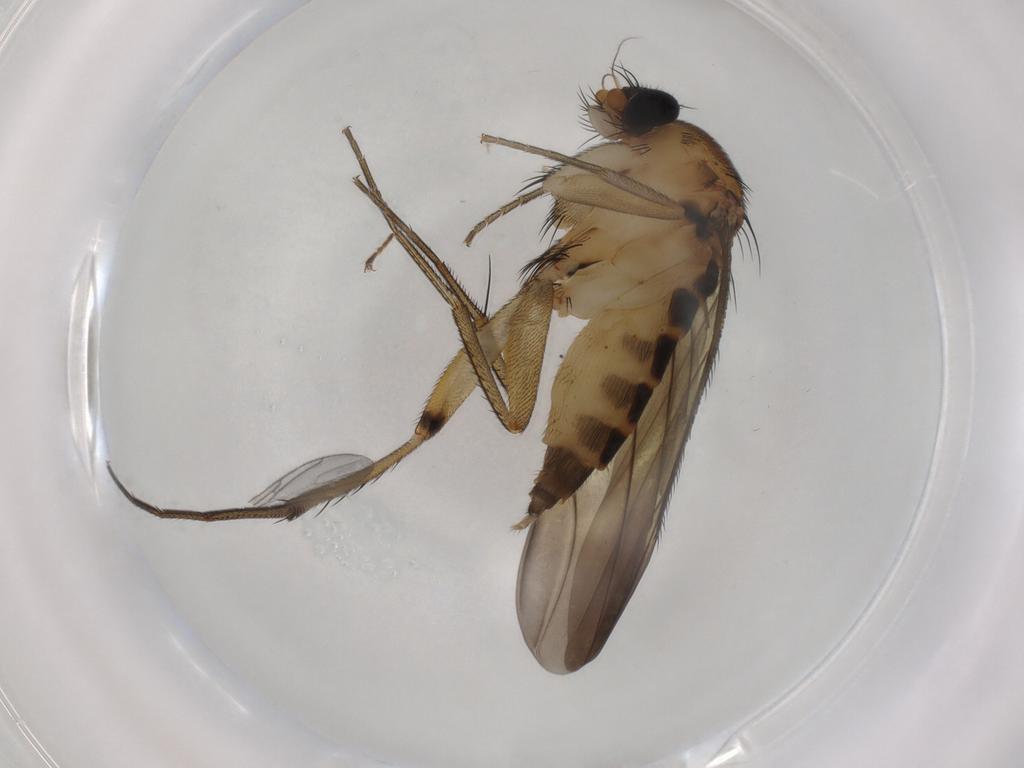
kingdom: Animalia
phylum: Arthropoda
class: Insecta
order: Diptera
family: Phoridae
